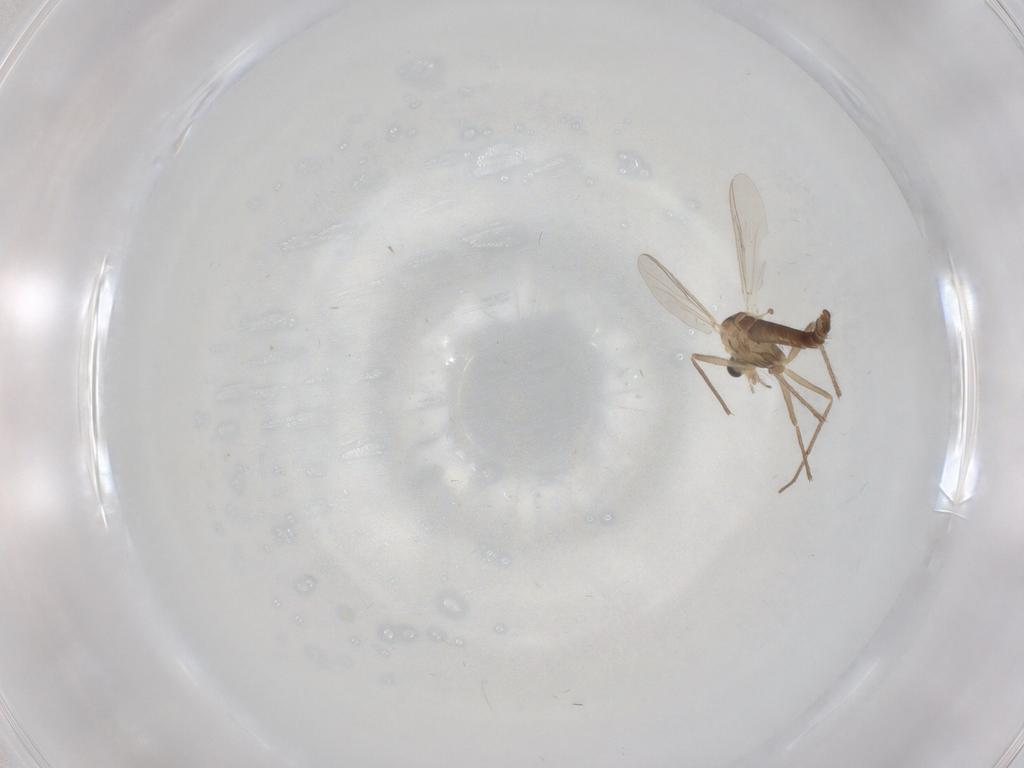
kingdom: Animalia
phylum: Arthropoda
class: Insecta
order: Diptera
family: Chironomidae
